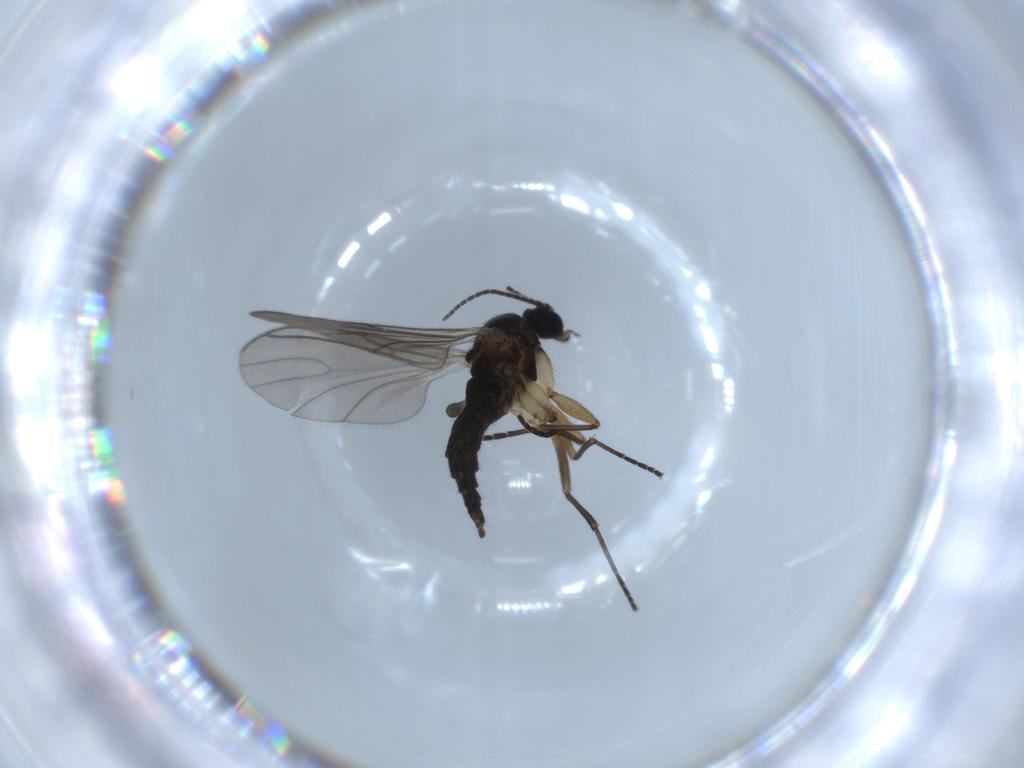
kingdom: Animalia
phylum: Arthropoda
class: Insecta
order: Diptera
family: Sciaridae
